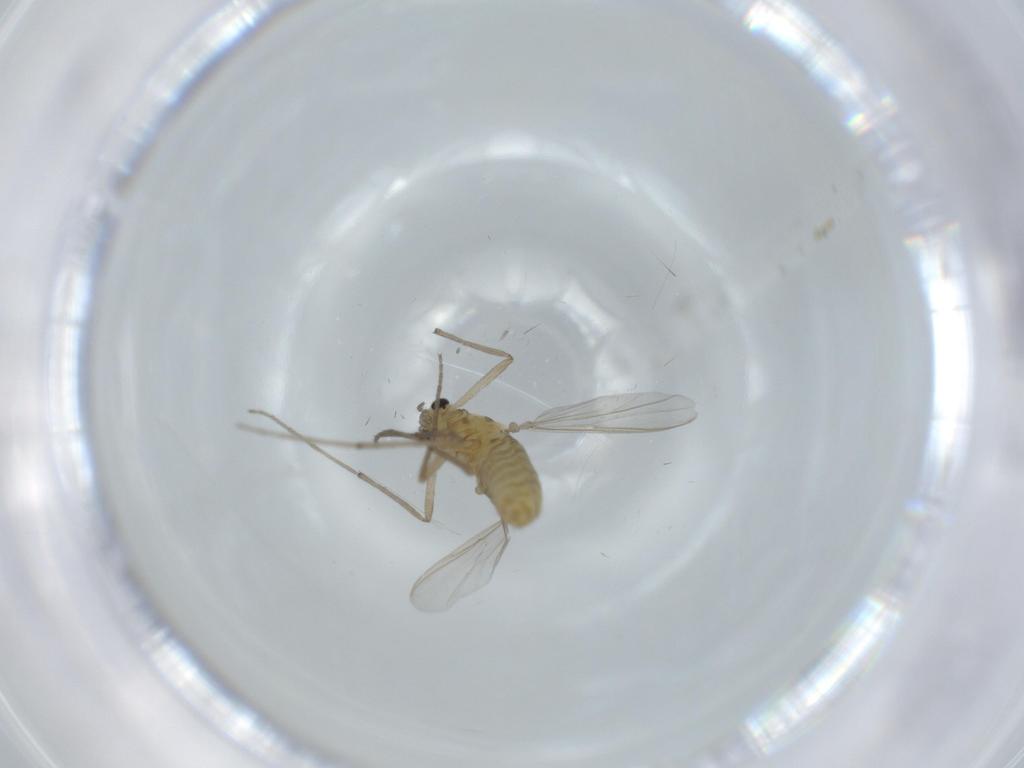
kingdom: Animalia
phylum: Arthropoda
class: Insecta
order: Diptera
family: Chironomidae
